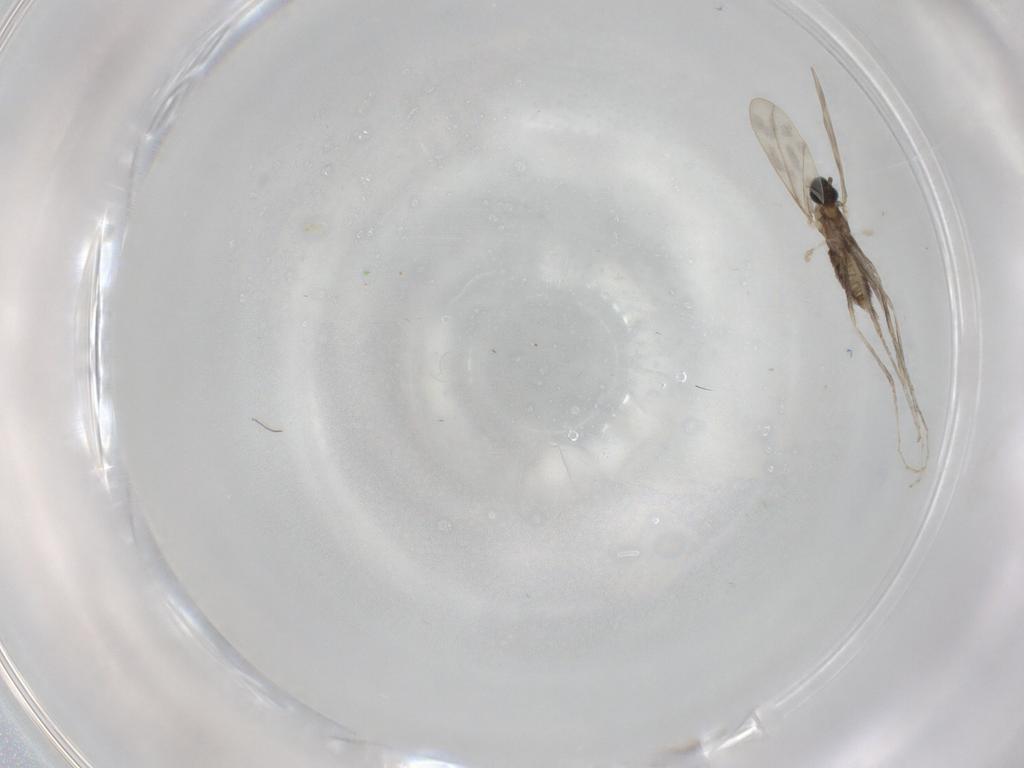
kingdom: Animalia
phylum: Arthropoda
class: Insecta
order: Diptera
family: Cecidomyiidae
